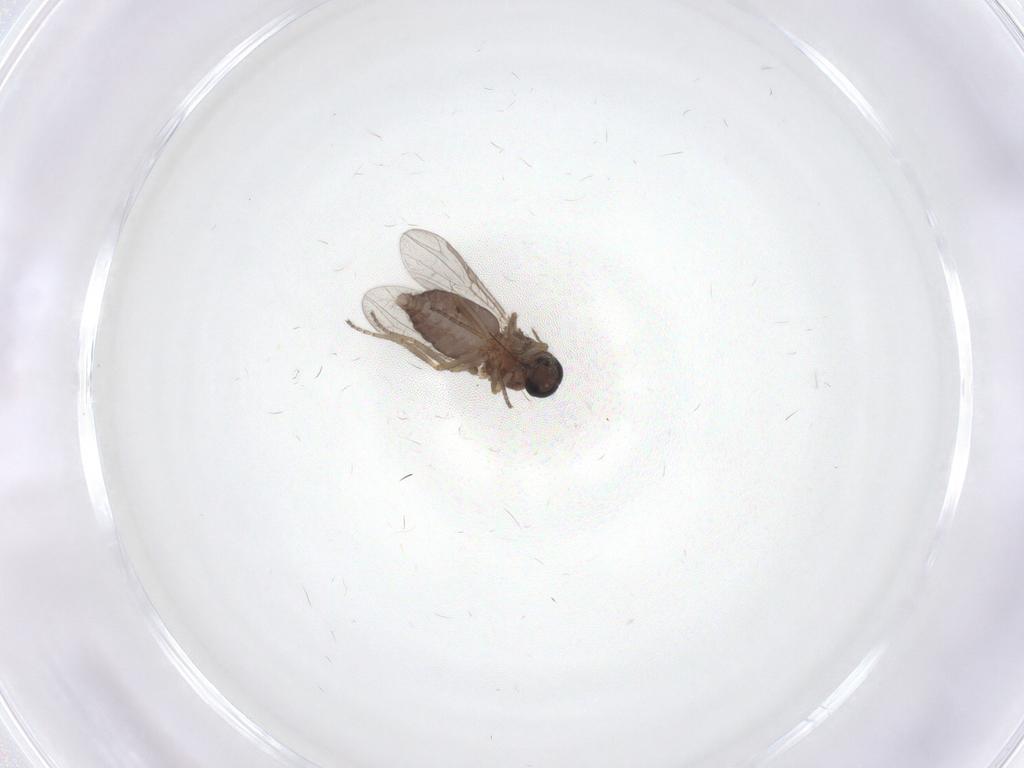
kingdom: Animalia
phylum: Arthropoda
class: Insecta
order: Diptera
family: Ceratopogonidae
